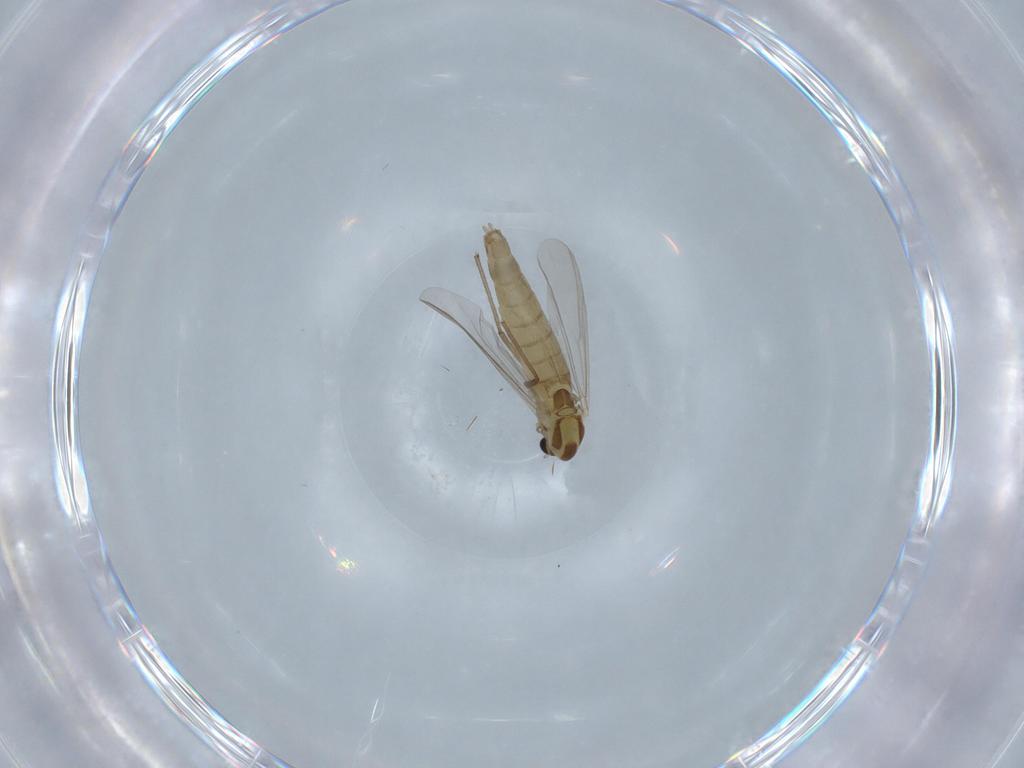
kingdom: Animalia
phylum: Arthropoda
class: Insecta
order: Diptera
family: Chironomidae
